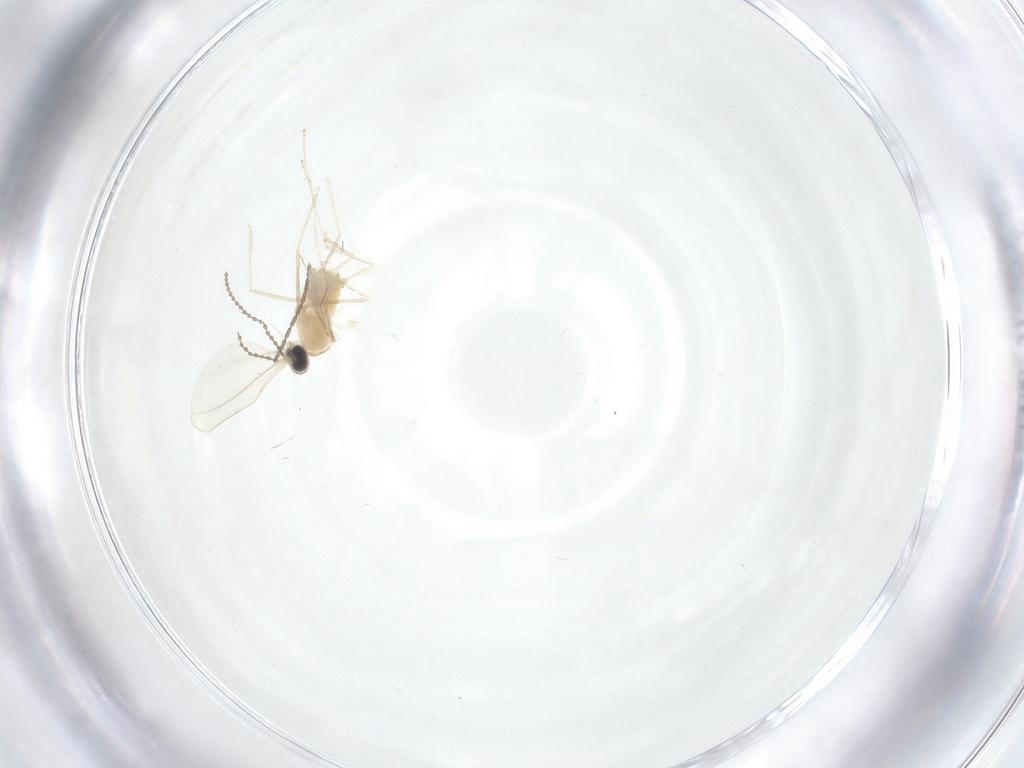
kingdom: Animalia
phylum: Arthropoda
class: Insecta
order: Diptera
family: Cecidomyiidae
